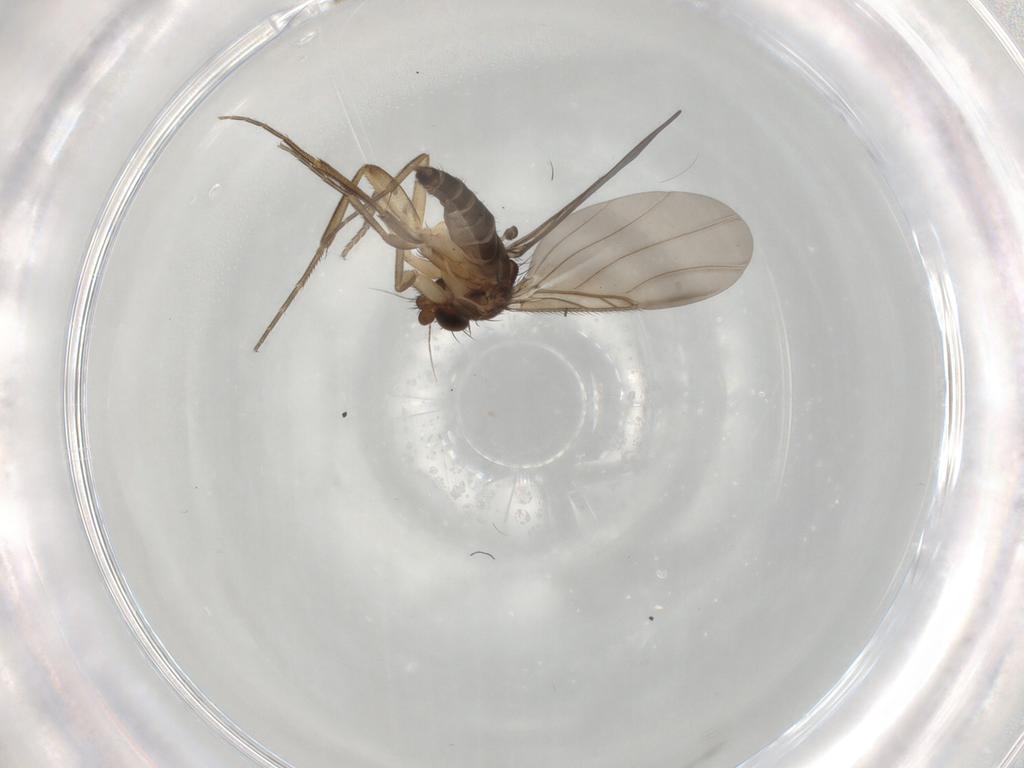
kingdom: Animalia
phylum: Arthropoda
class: Insecta
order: Diptera
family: Phoridae
